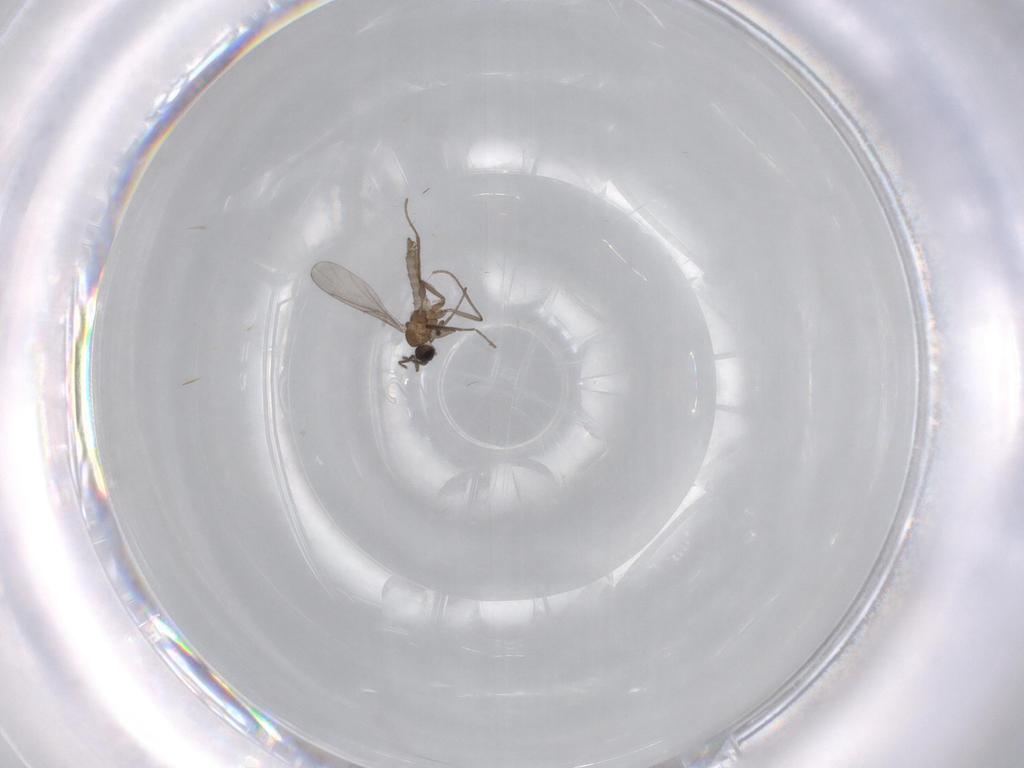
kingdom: Animalia
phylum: Arthropoda
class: Insecta
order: Diptera
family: Sciaridae
